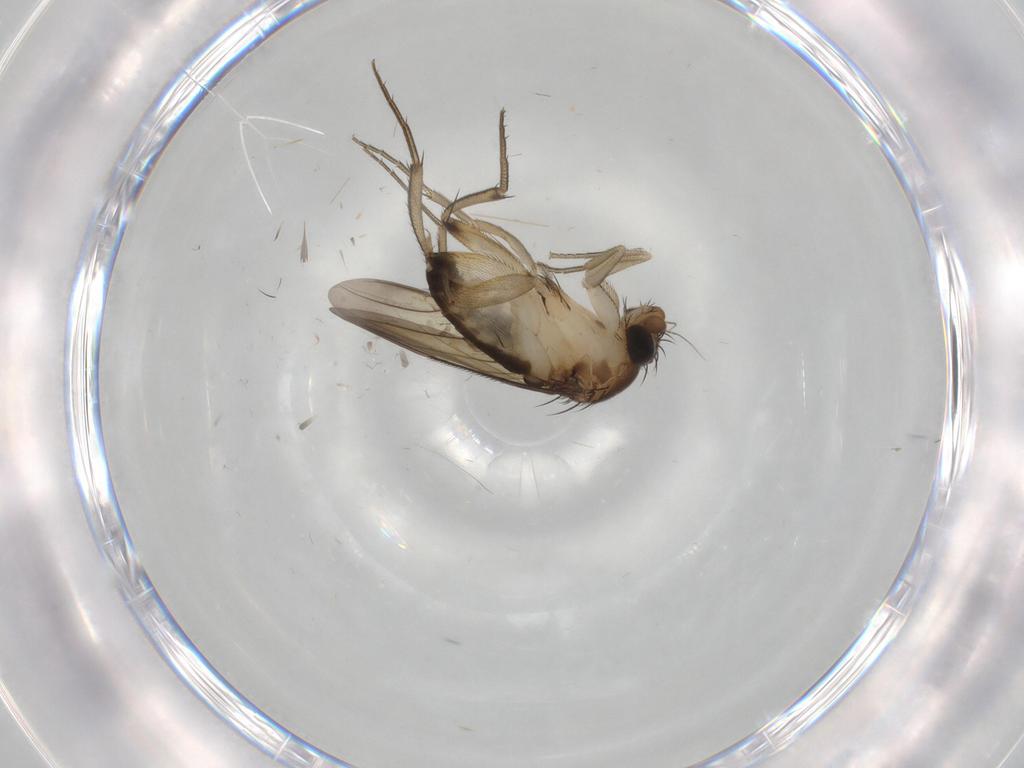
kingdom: Animalia
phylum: Arthropoda
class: Insecta
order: Diptera
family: Phoridae
